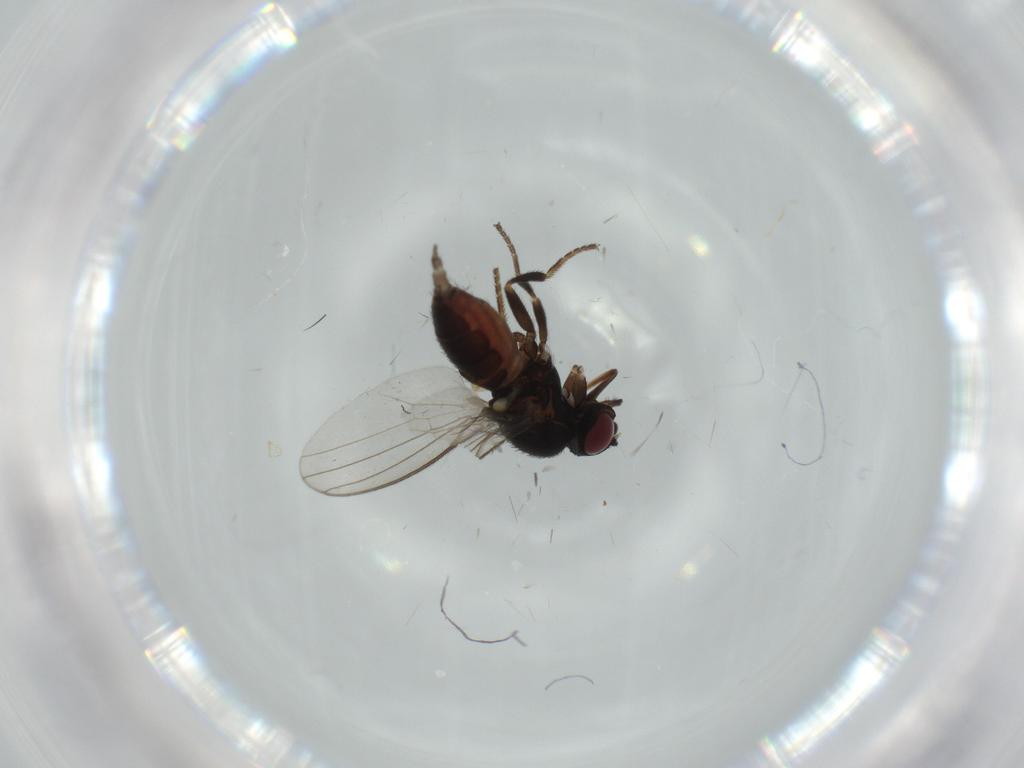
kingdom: Animalia
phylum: Arthropoda
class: Insecta
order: Diptera
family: Milichiidae
